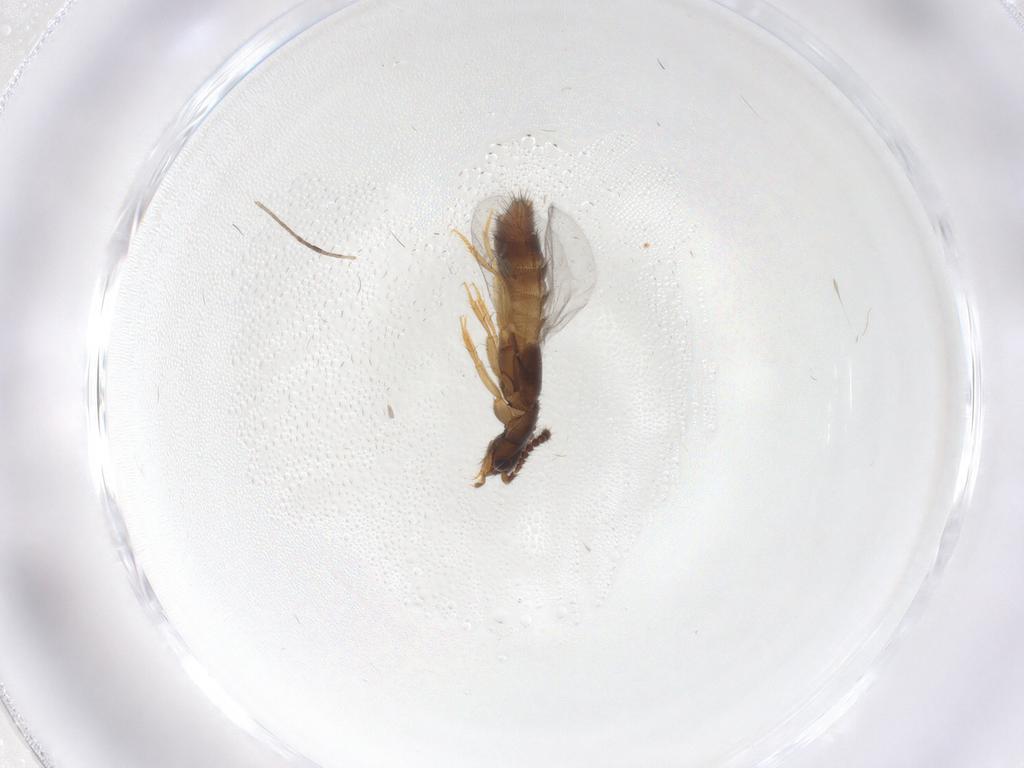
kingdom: Animalia
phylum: Arthropoda
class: Insecta
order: Coleoptera
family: Staphylinidae
